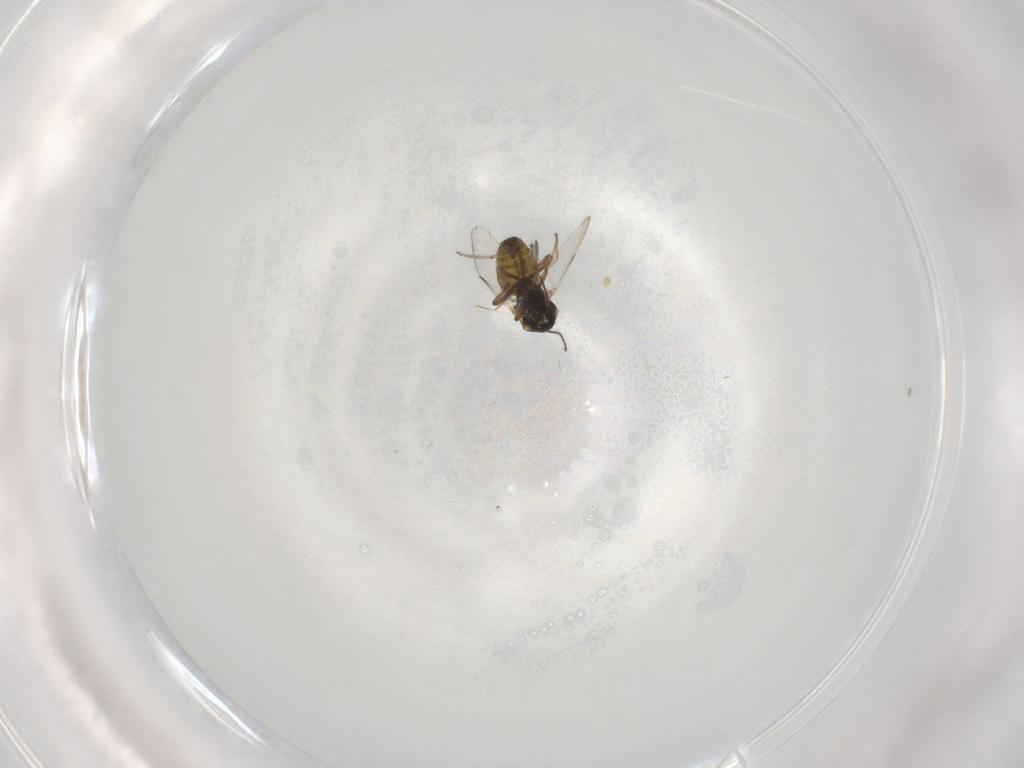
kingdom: Animalia
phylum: Arthropoda
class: Insecta
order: Diptera
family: Ceratopogonidae
